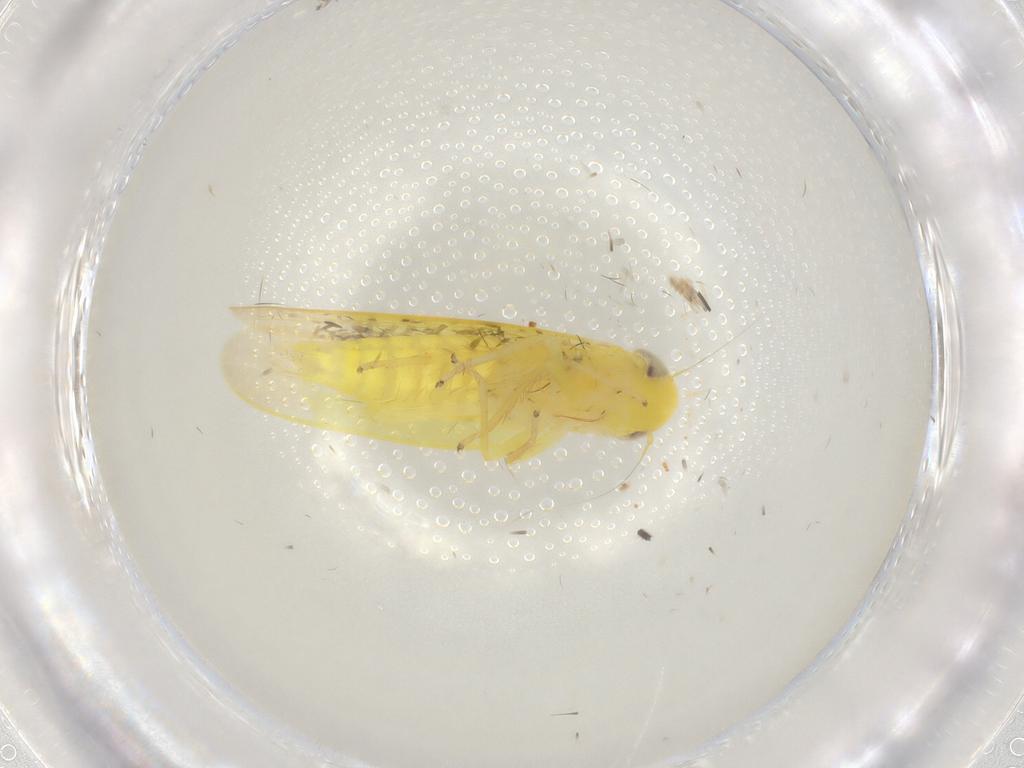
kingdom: Animalia
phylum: Arthropoda
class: Insecta
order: Hemiptera
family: Cicadellidae
